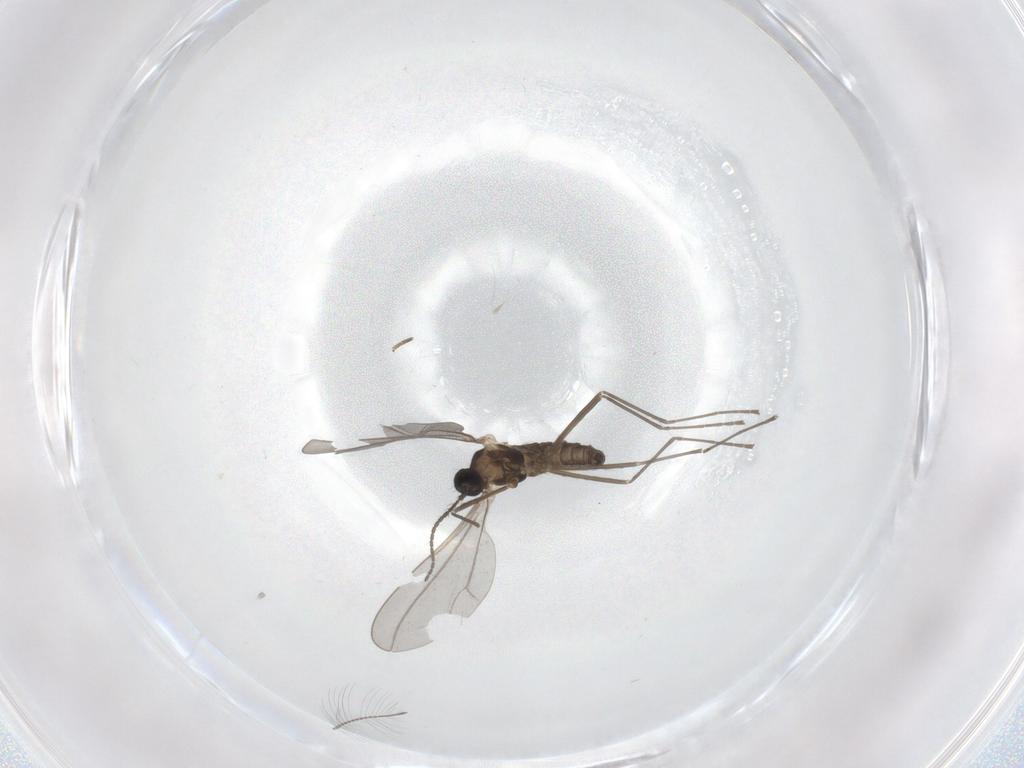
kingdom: Animalia
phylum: Arthropoda
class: Insecta
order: Diptera
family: Phoridae
